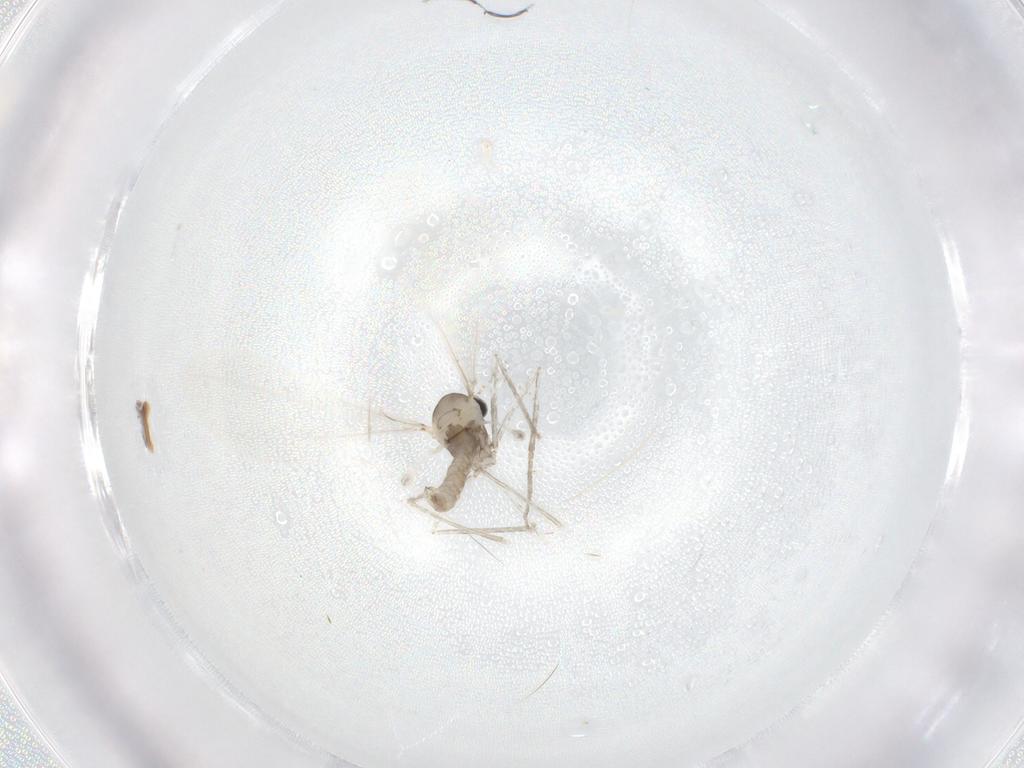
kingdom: Animalia
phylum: Arthropoda
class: Insecta
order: Diptera
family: Cecidomyiidae
